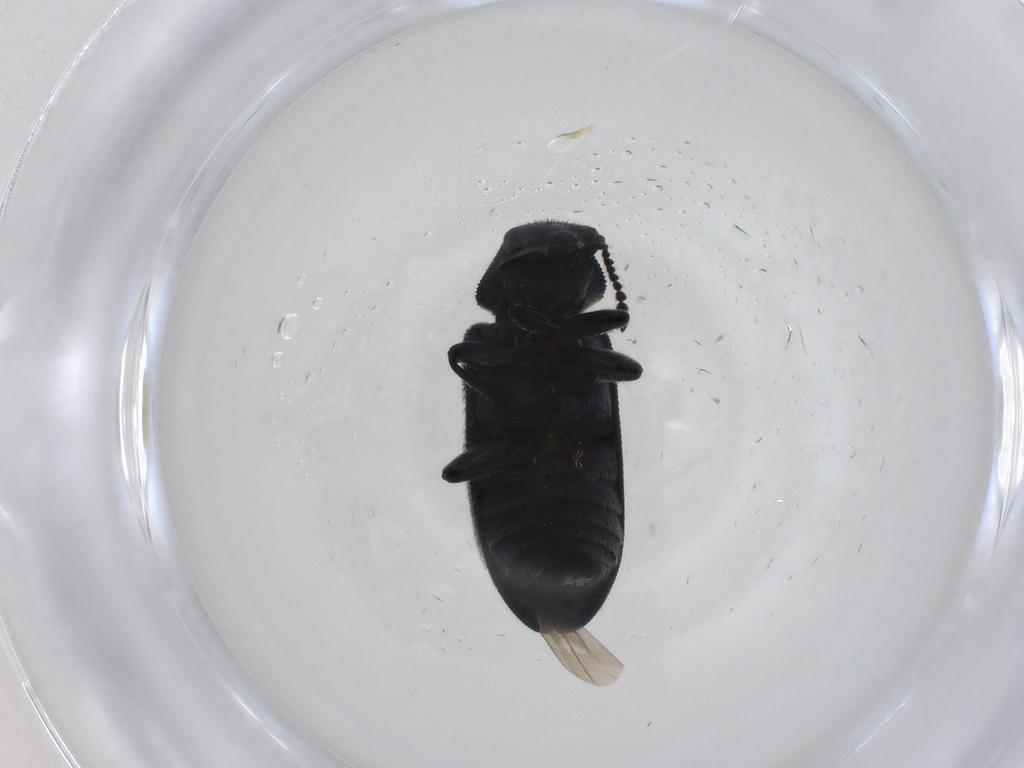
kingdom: Animalia
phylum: Arthropoda
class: Insecta
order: Coleoptera
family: Melyridae
